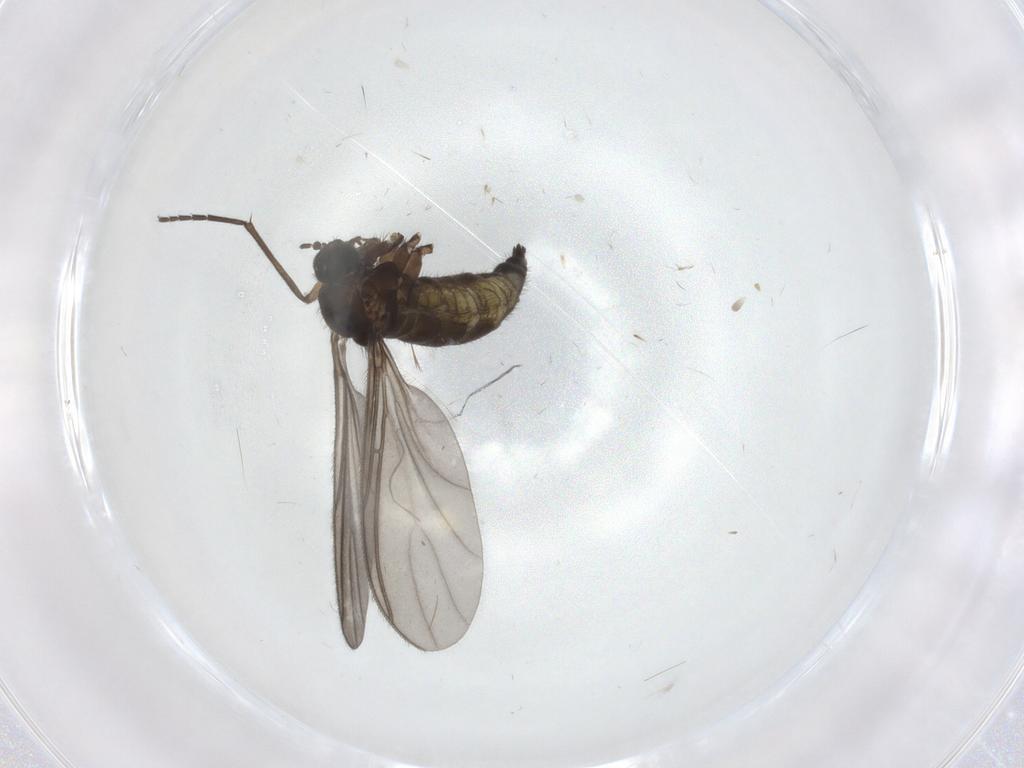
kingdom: Animalia
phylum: Arthropoda
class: Insecta
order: Diptera
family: Sciaridae
